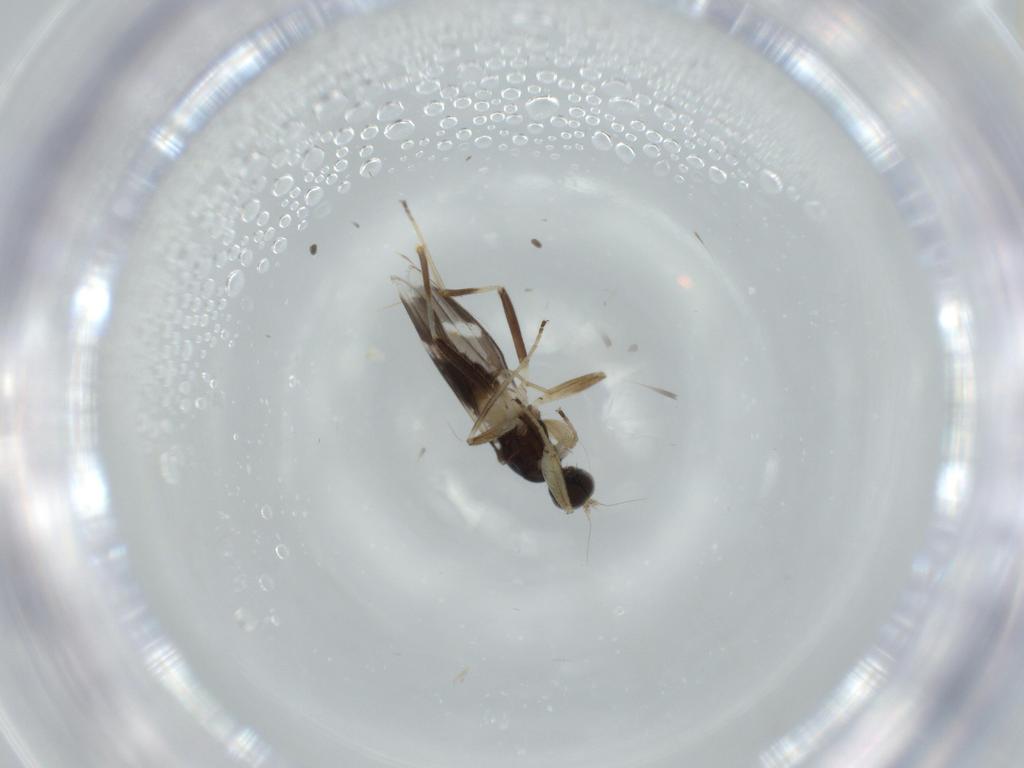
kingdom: Animalia
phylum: Arthropoda
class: Insecta
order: Diptera
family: Hybotidae
